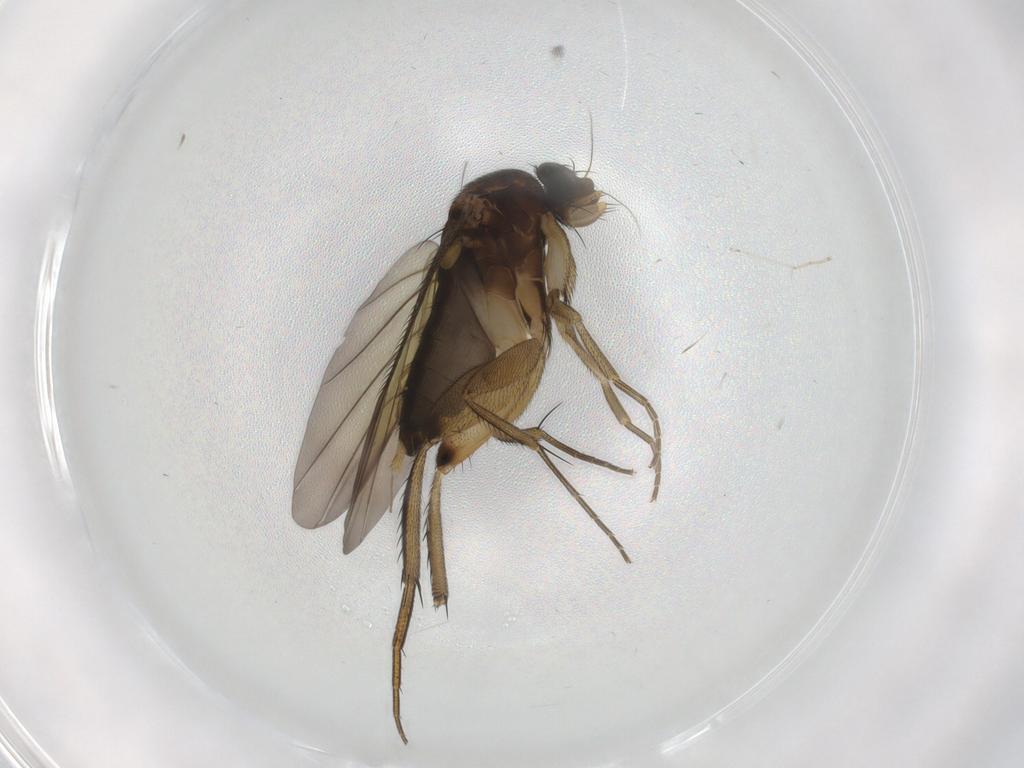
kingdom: Animalia
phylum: Arthropoda
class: Insecta
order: Diptera
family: Phoridae
